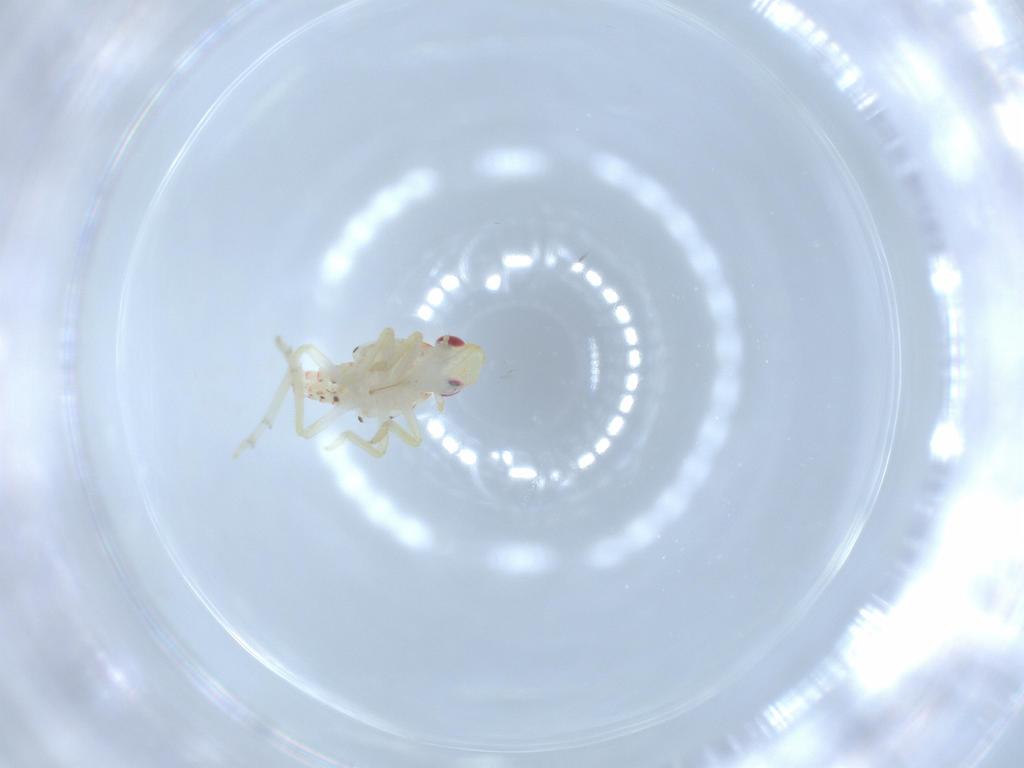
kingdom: Animalia
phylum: Arthropoda
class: Insecta
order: Hemiptera
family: Tropiduchidae
